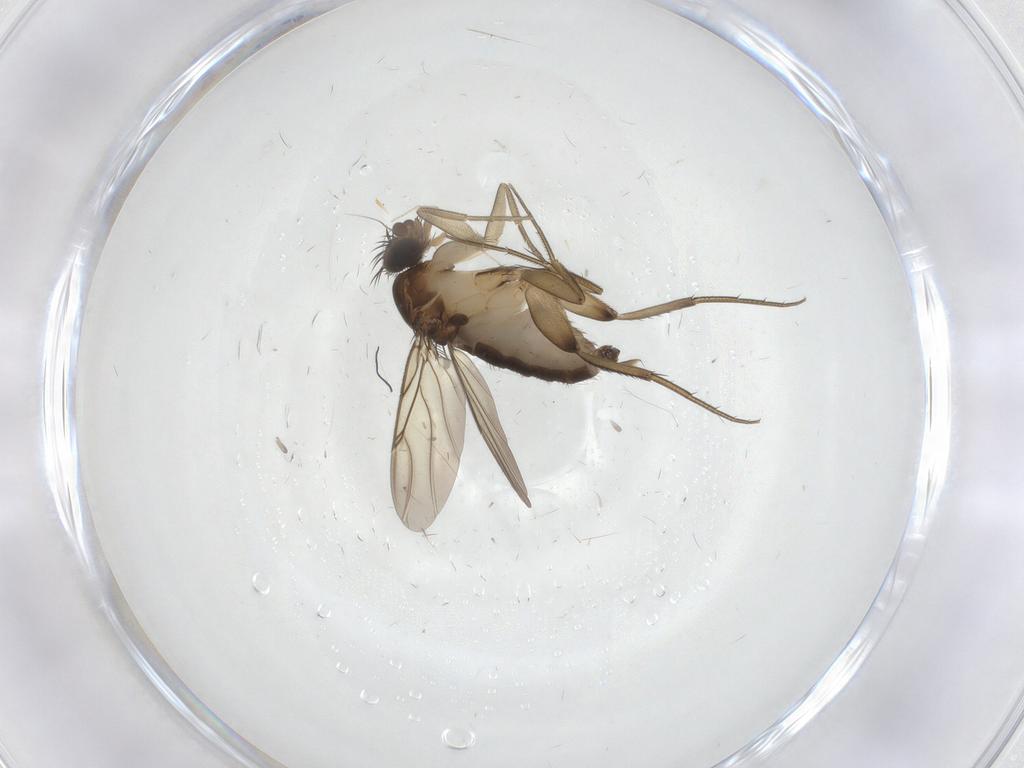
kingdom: Animalia
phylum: Arthropoda
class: Insecta
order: Diptera
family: Phoridae
